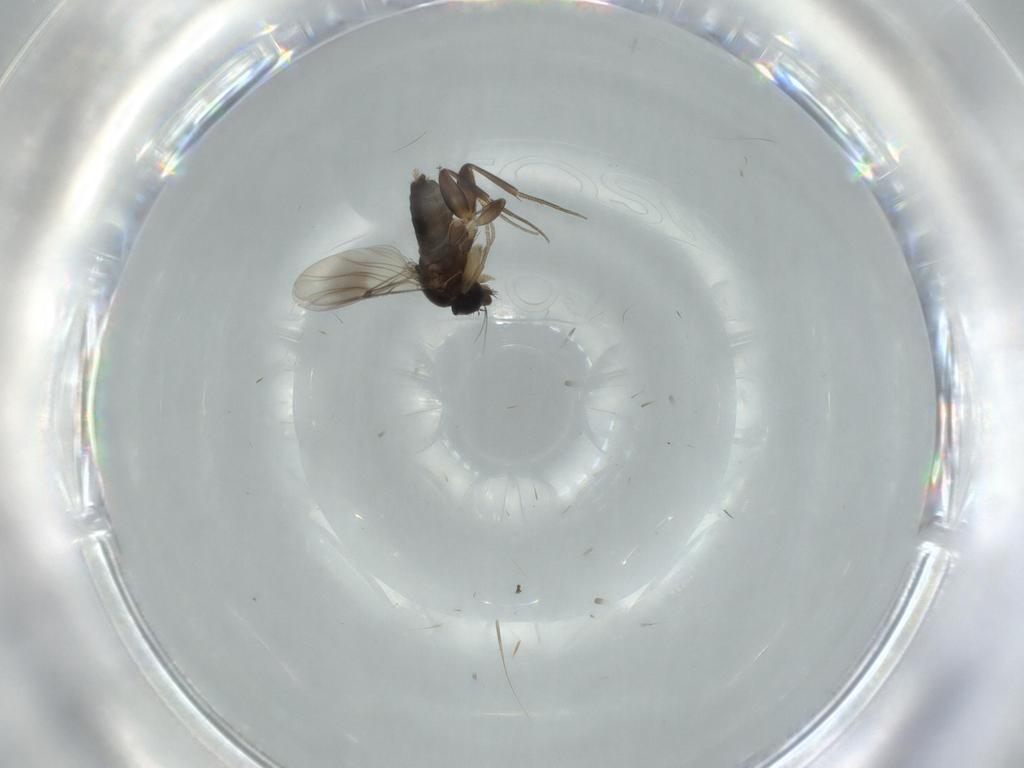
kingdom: Animalia
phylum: Arthropoda
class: Insecta
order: Diptera
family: Phoridae
